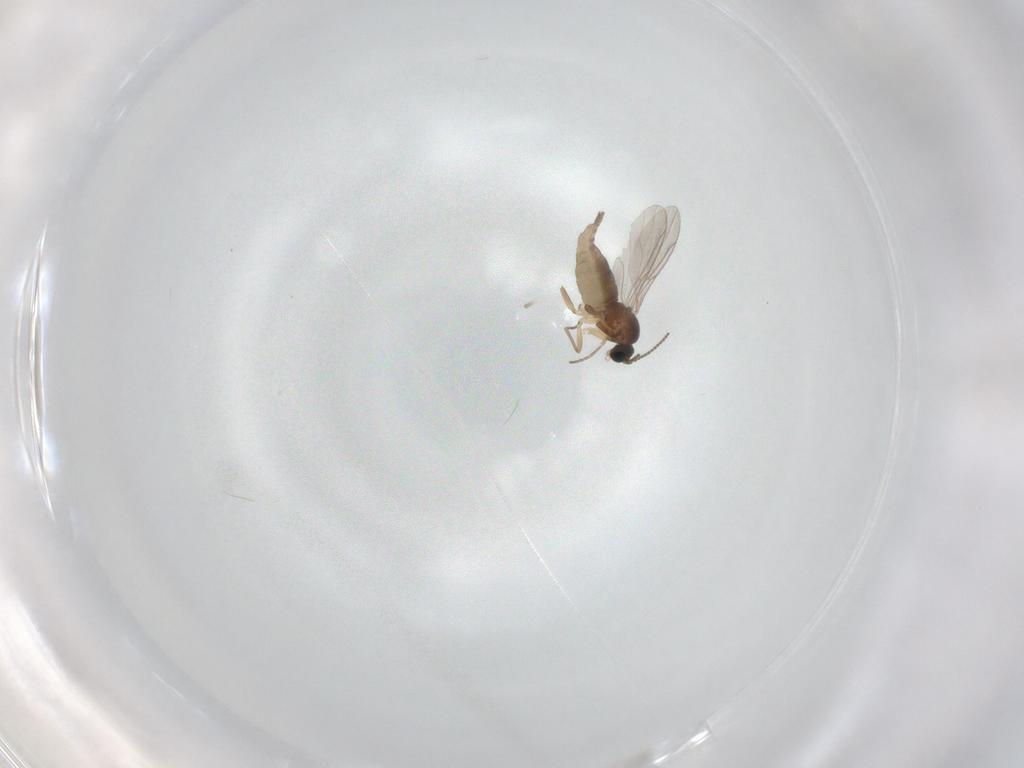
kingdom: Animalia
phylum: Arthropoda
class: Insecta
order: Diptera
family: Sciaridae
